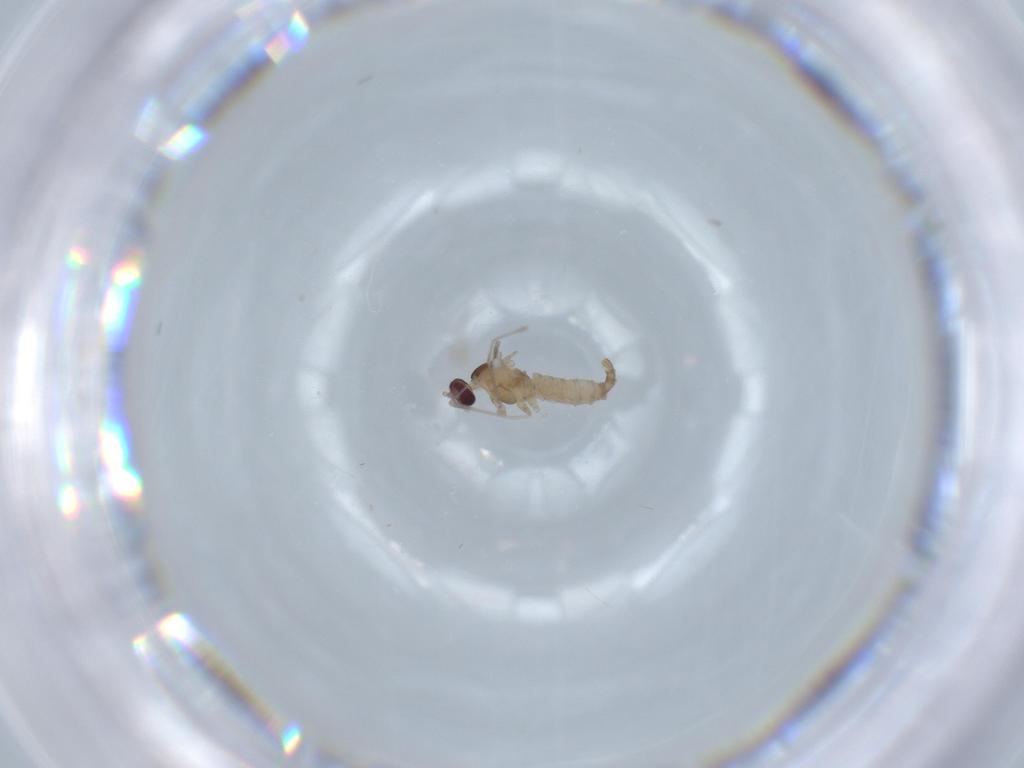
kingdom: Animalia
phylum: Arthropoda
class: Insecta
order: Diptera
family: Cecidomyiidae
